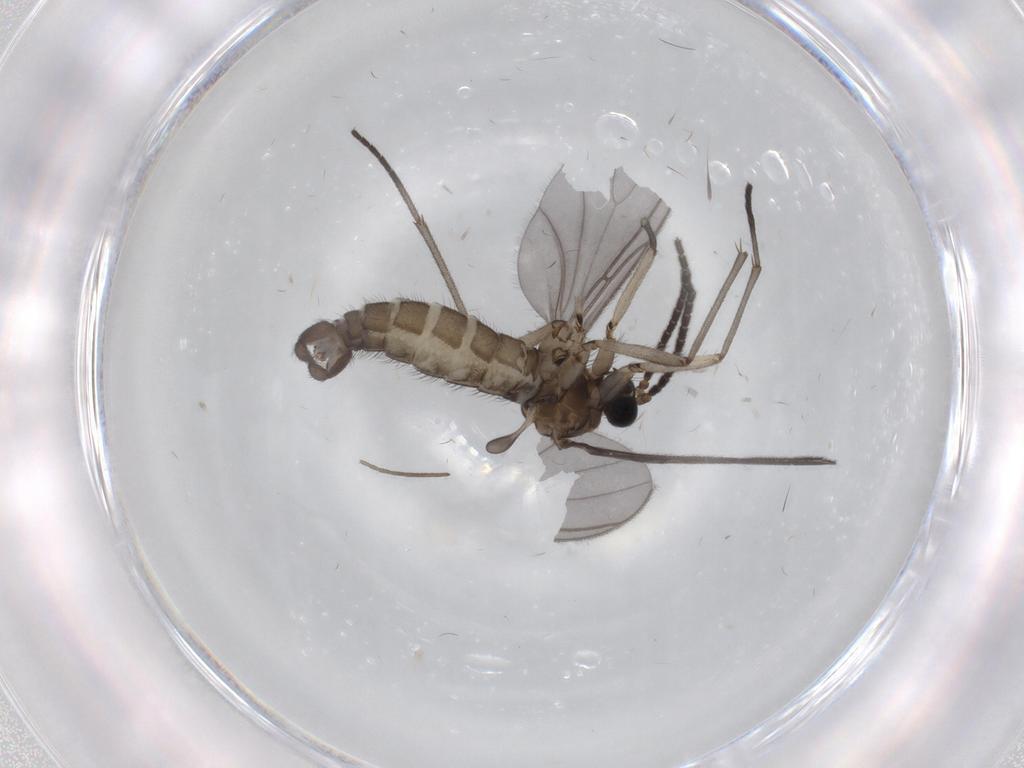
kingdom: Animalia
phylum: Arthropoda
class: Insecta
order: Diptera
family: Sciaridae
